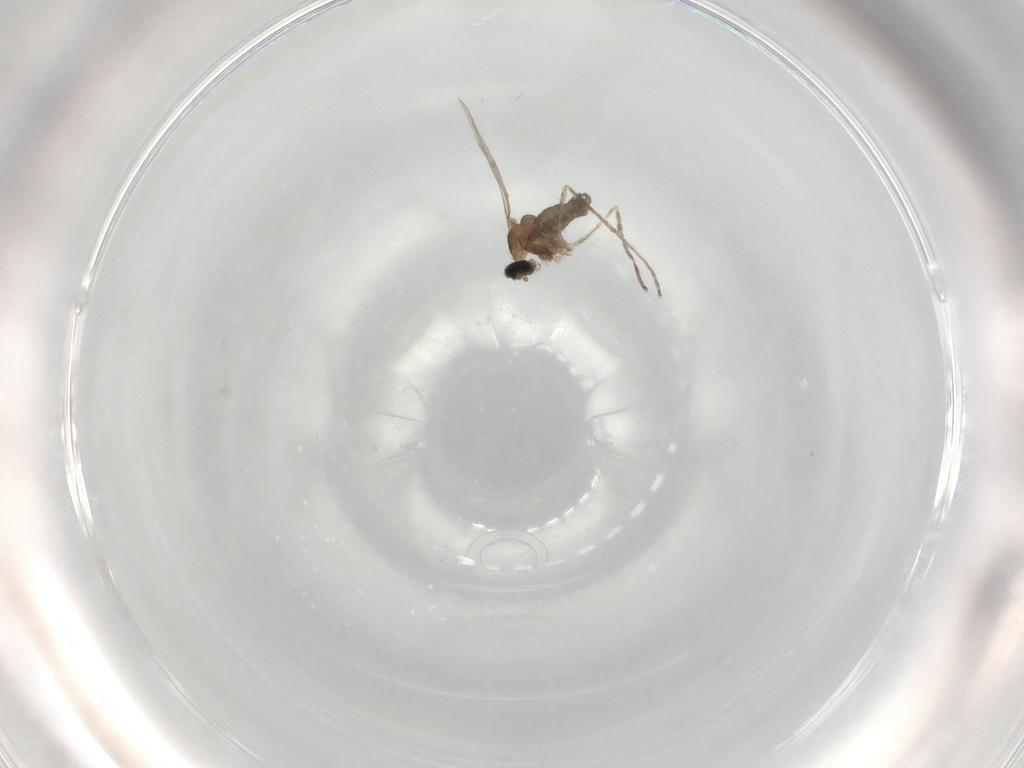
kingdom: Animalia
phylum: Arthropoda
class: Insecta
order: Diptera
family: Cecidomyiidae
